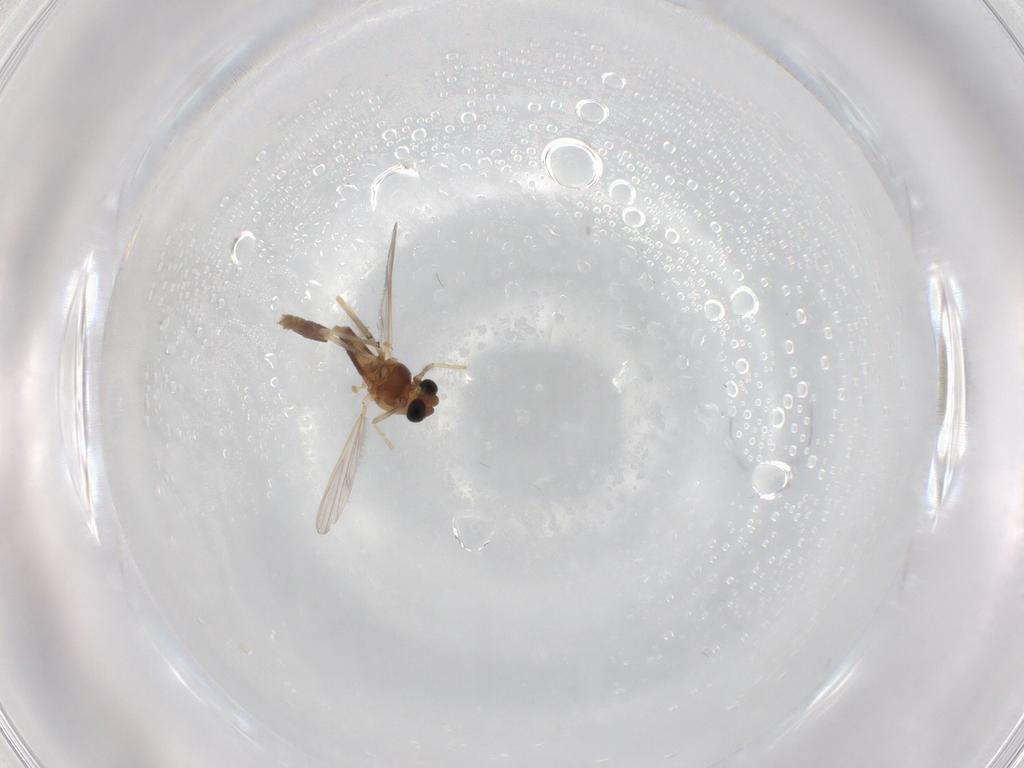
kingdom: Animalia
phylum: Arthropoda
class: Insecta
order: Diptera
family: Chironomidae
